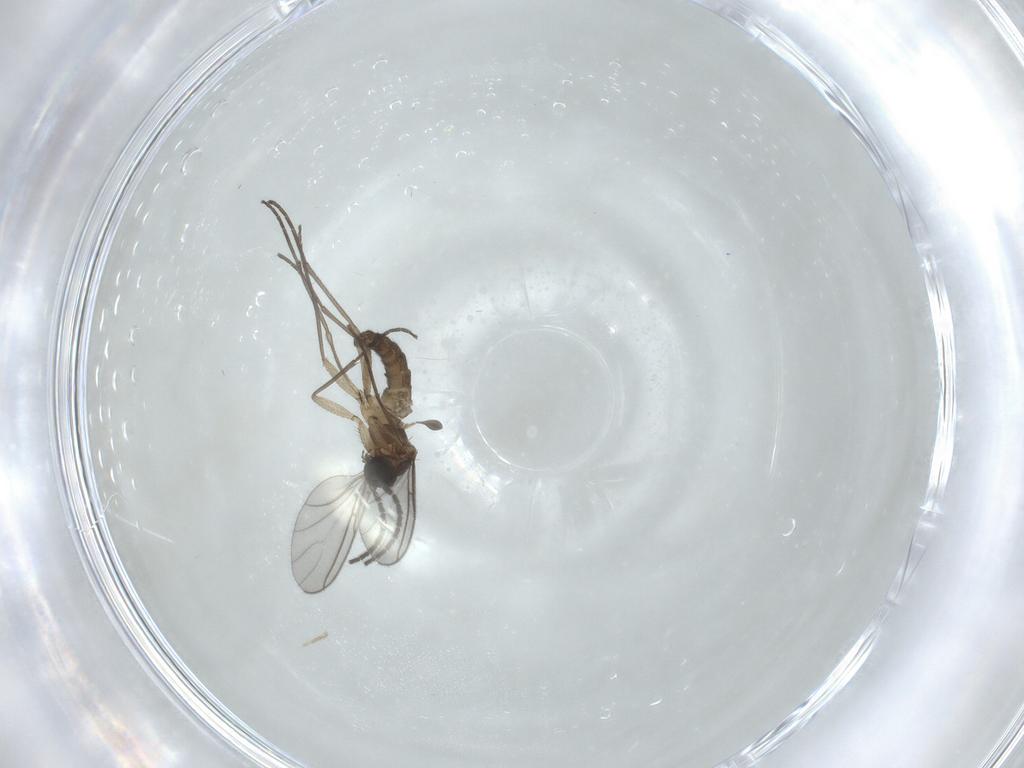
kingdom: Animalia
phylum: Arthropoda
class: Insecta
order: Diptera
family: Sciaridae
